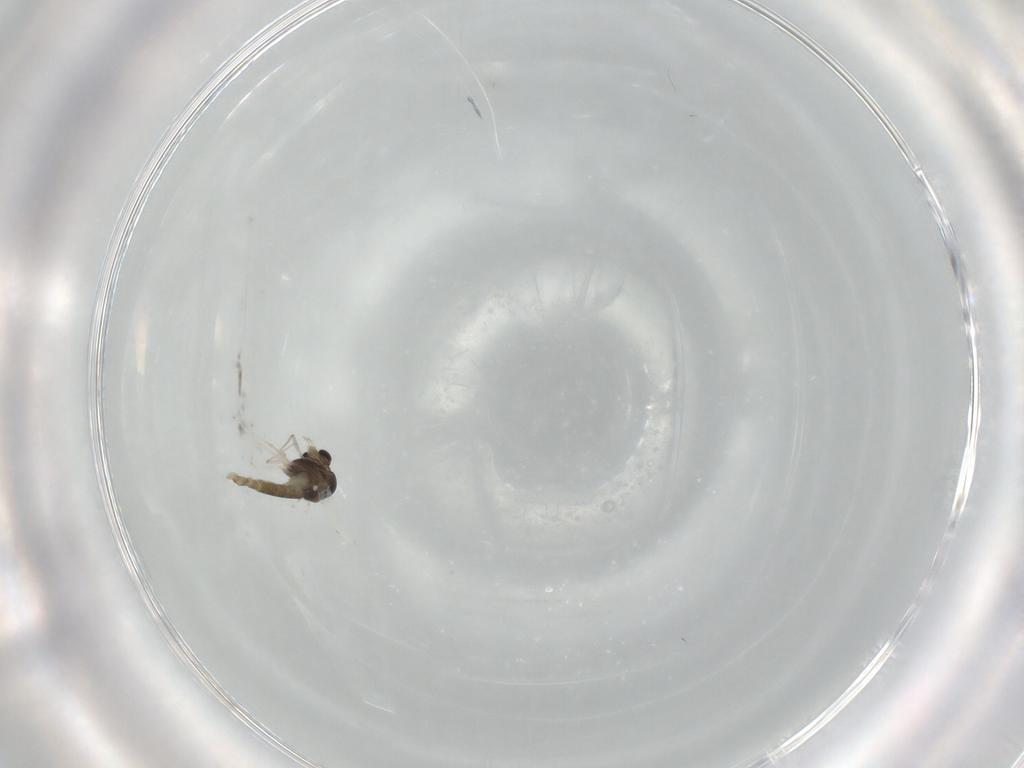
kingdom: Animalia
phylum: Arthropoda
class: Insecta
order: Diptera
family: Chironomidae
